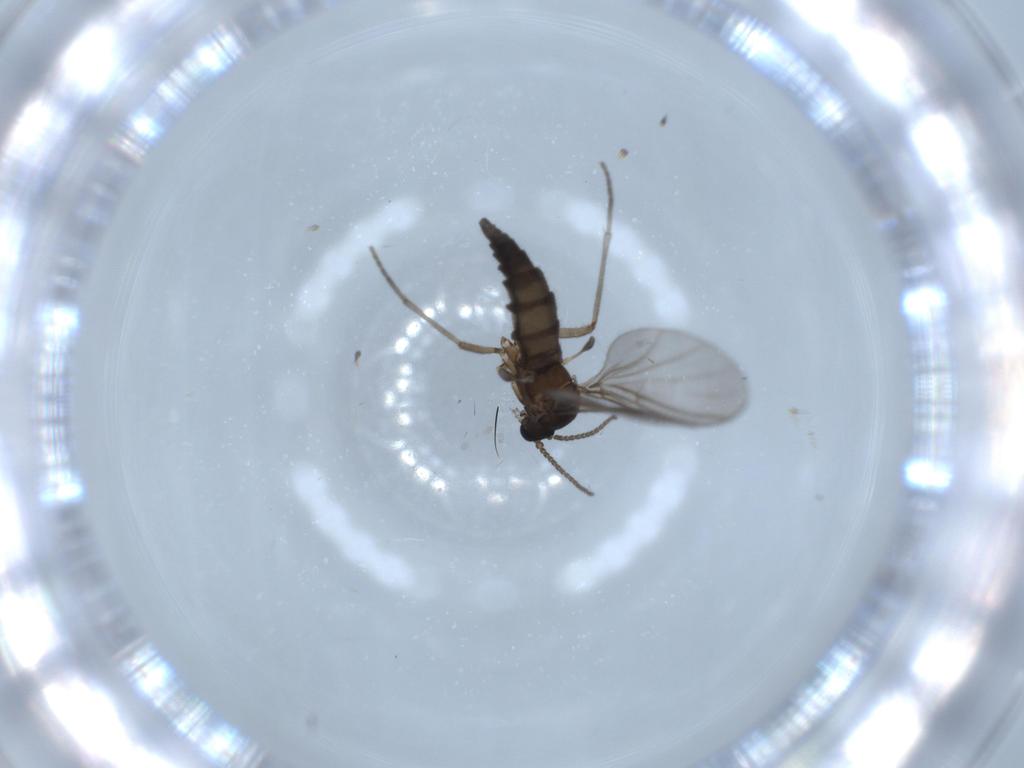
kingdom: Animalia
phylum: Arthropoda
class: Insecta
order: Diptera
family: Sciaridae
